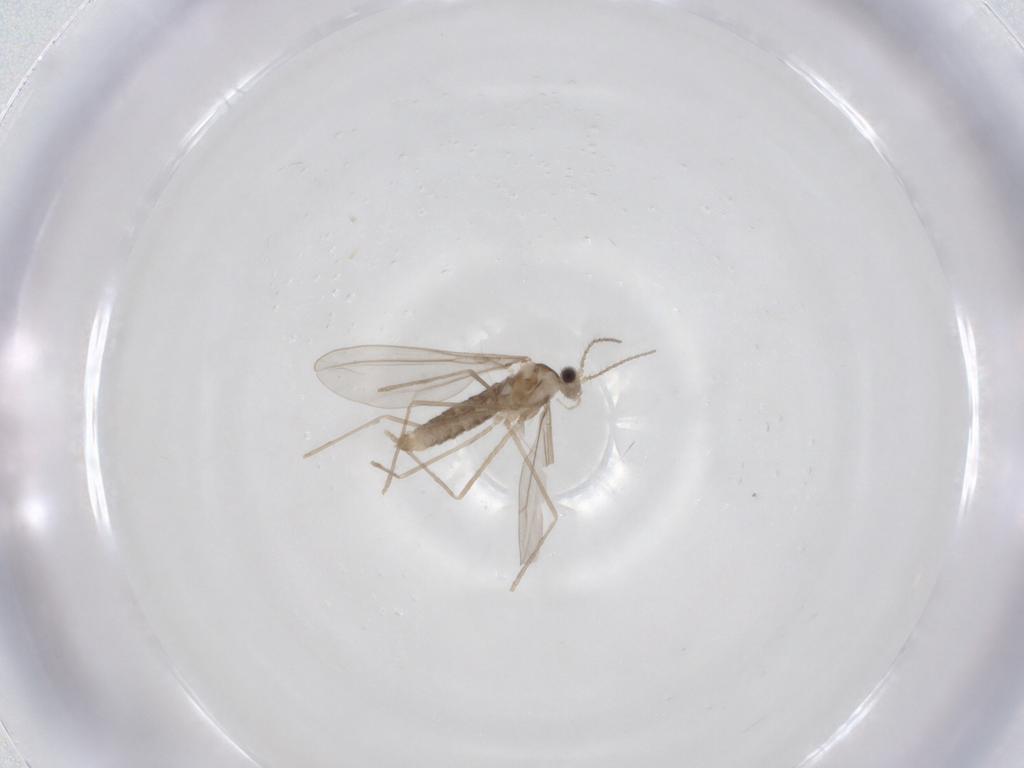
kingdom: Animalia
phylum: Arthropoda
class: Insecta
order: Diptera
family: Cecidomyiidae
